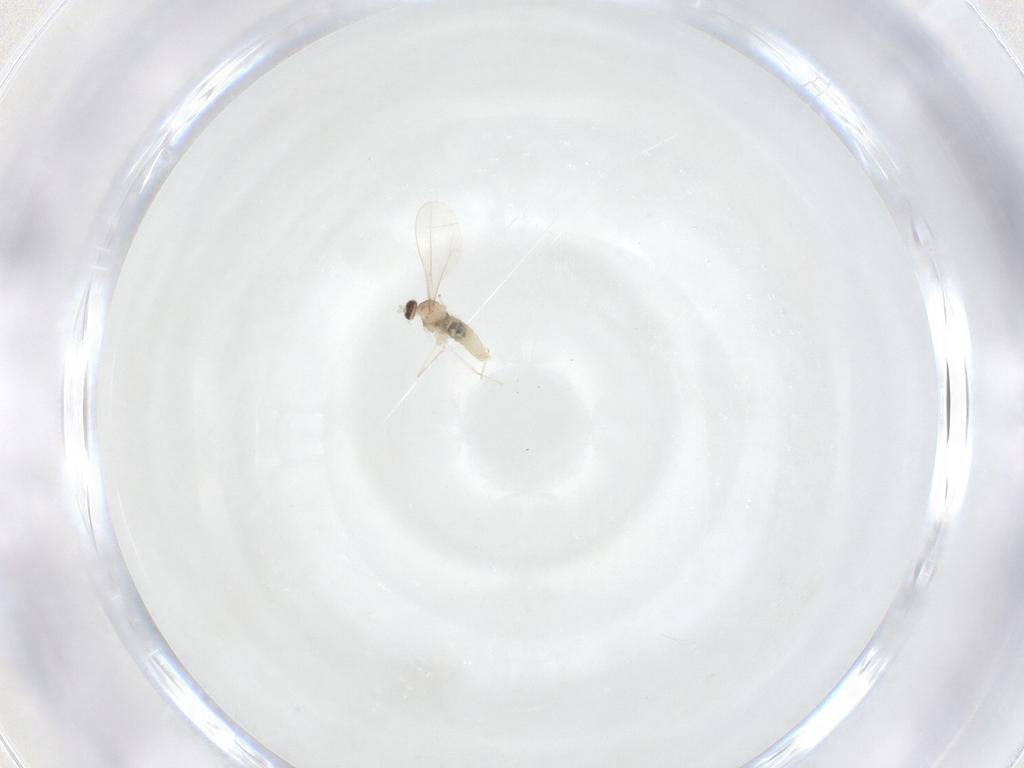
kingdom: Animalia
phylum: Arthropoda
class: Insecta
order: Diptera
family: Cecidomyiidae
